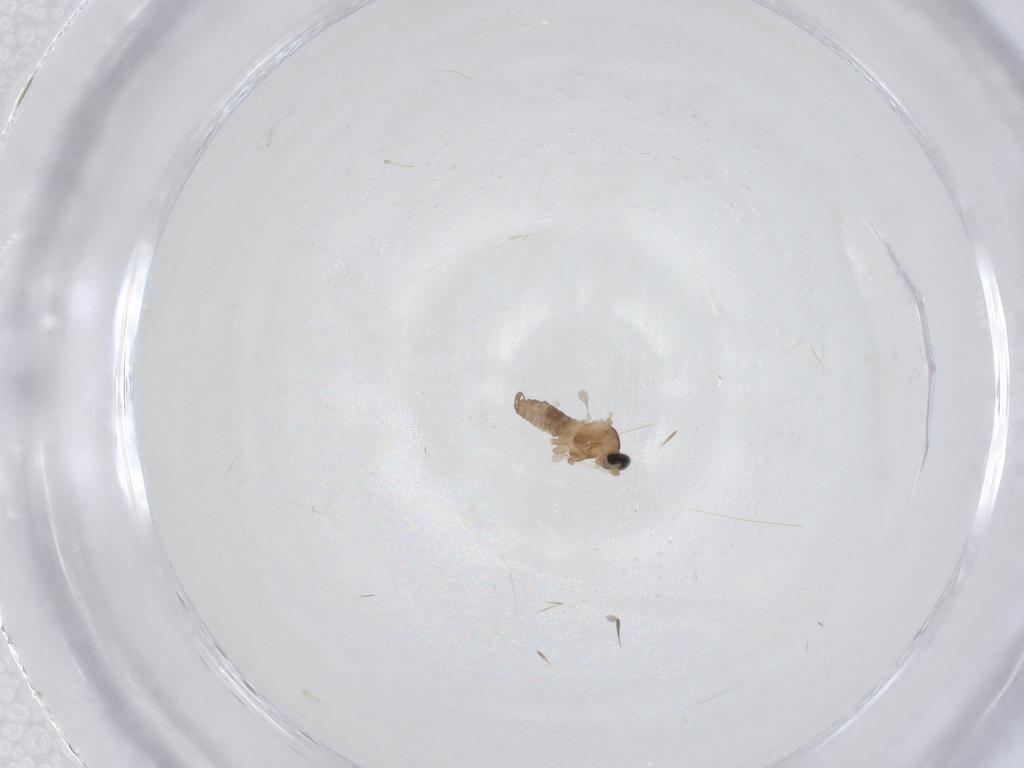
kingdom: Animalia
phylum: Arthropoda
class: Insecta
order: Diptera
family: Cecidomyiidae
